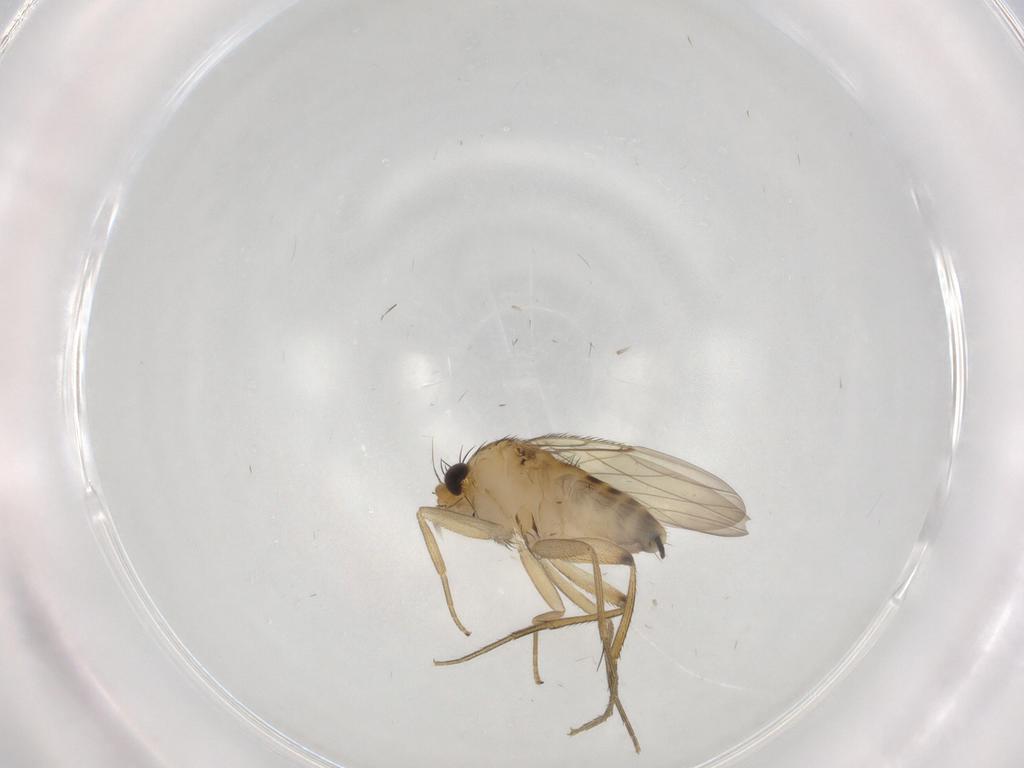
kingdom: Animalia
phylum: Arthropoda
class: Insecta
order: Diptera
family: Phoridae
